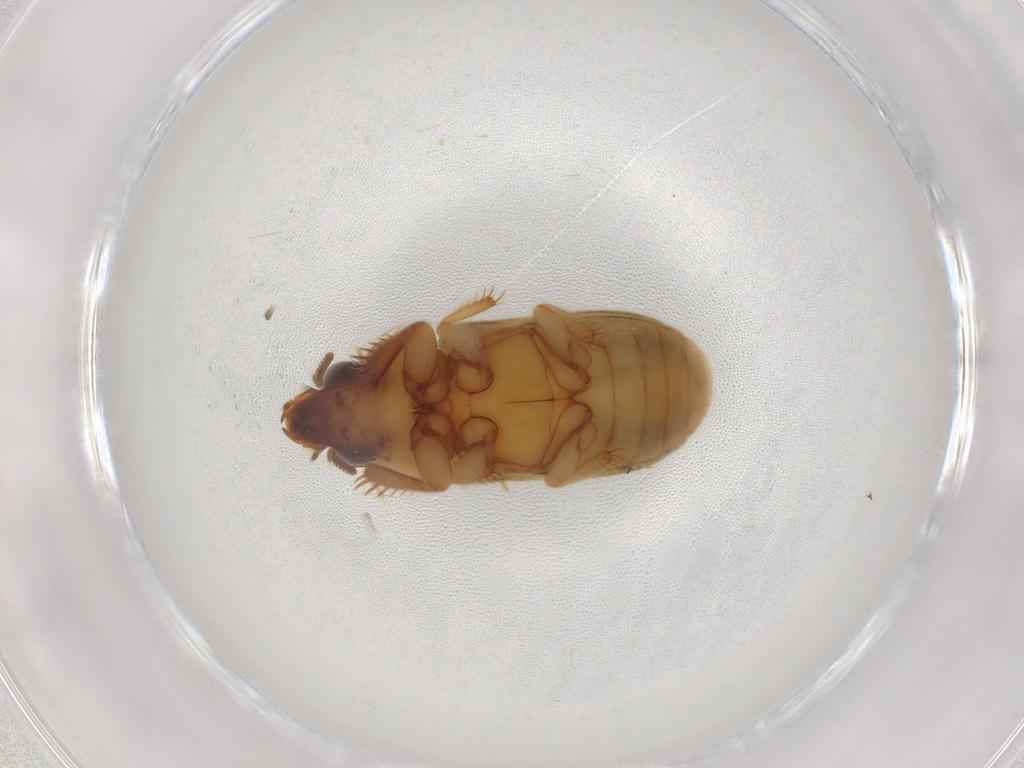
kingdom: Animalia
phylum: Arthropoda
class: Insecta
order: Coleoptera
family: Heteroceridae
